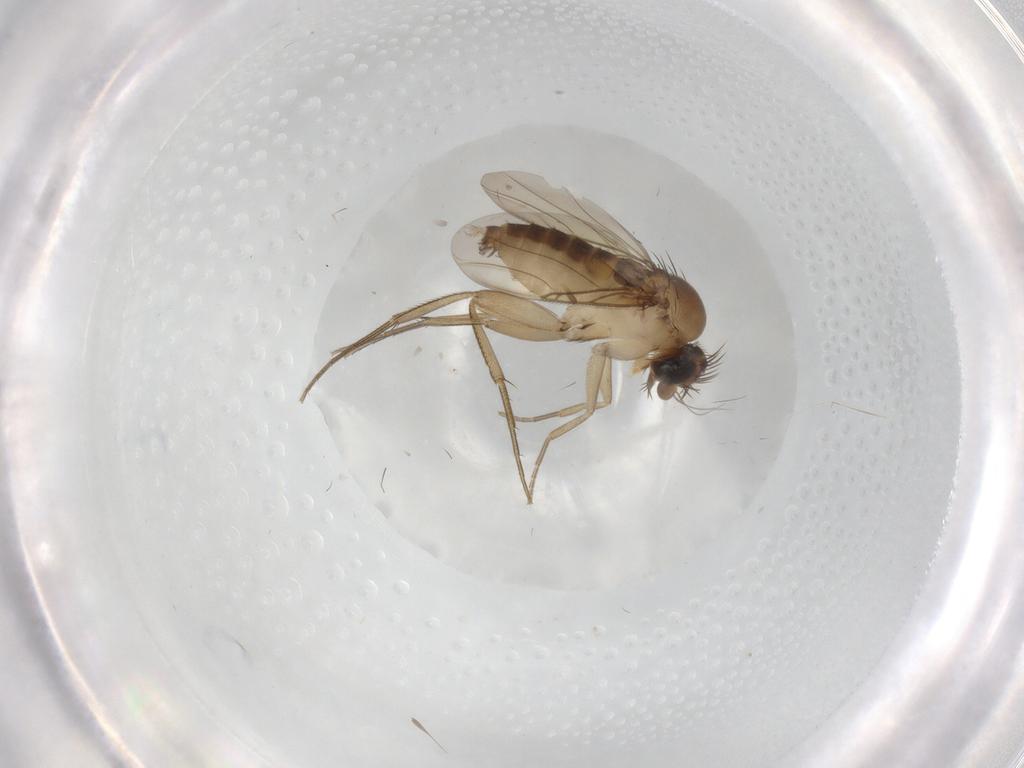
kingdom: Animalia
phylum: Arthropoda
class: Insecta
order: Diptera
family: Phoridae
